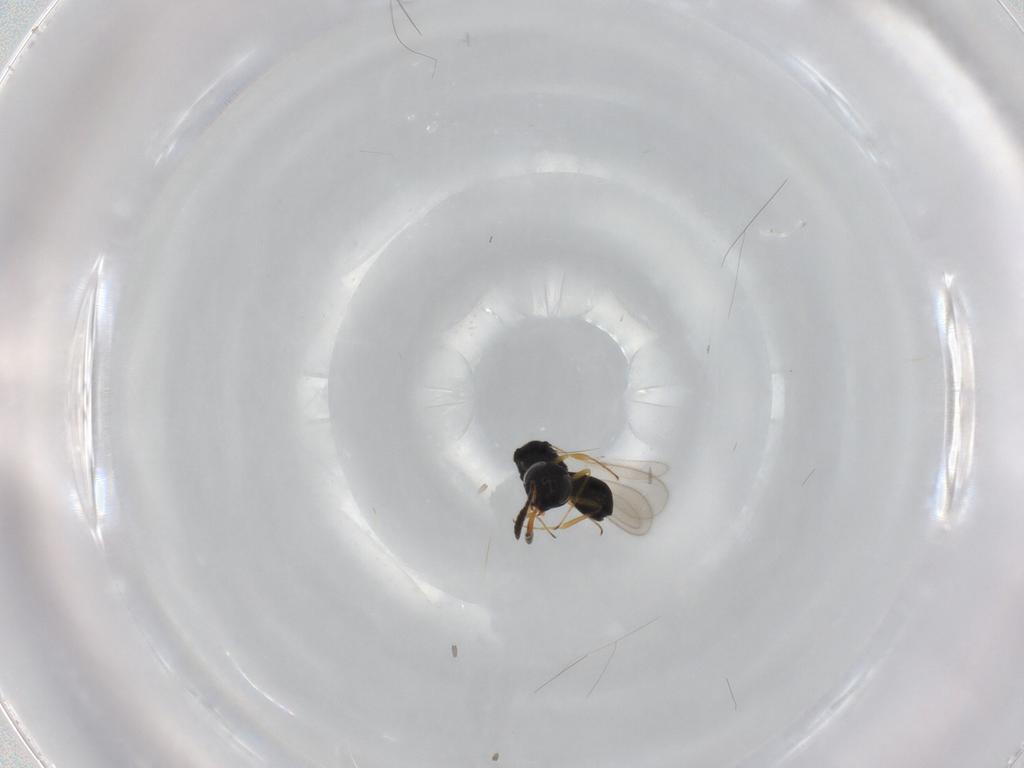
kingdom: Animalia
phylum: Arthropoda
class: Insecta
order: Hymenoptera
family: Scelionidae
